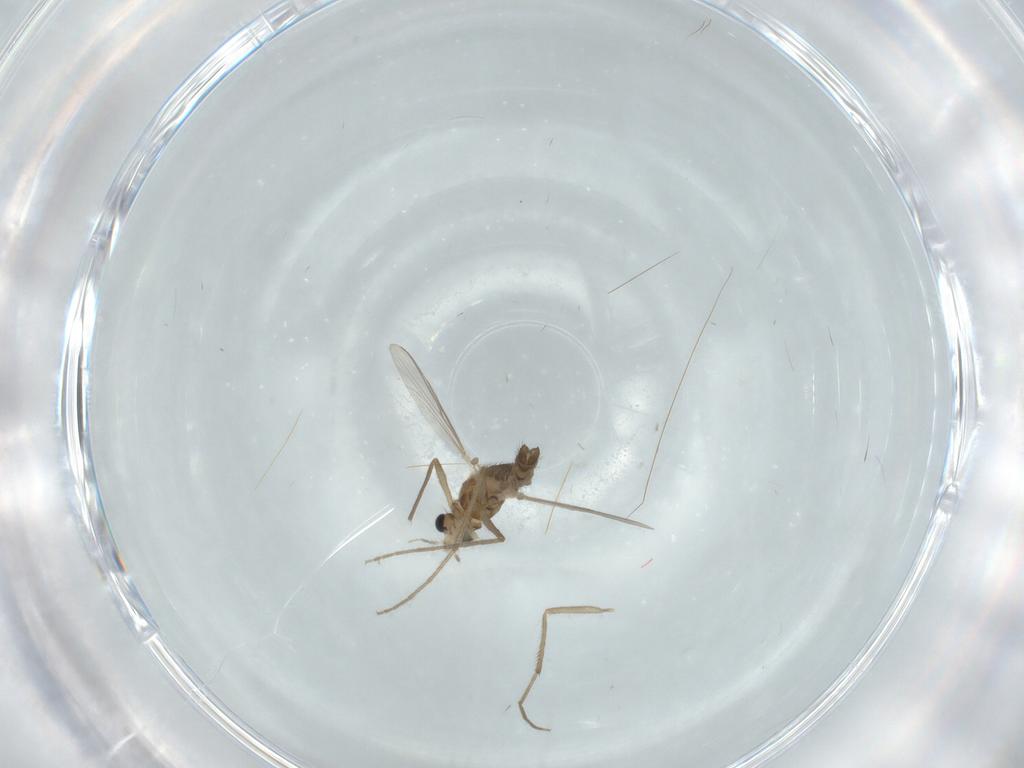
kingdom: Animalia
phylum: Arthropoda
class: Insecta
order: Diptera
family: Chironomidae
